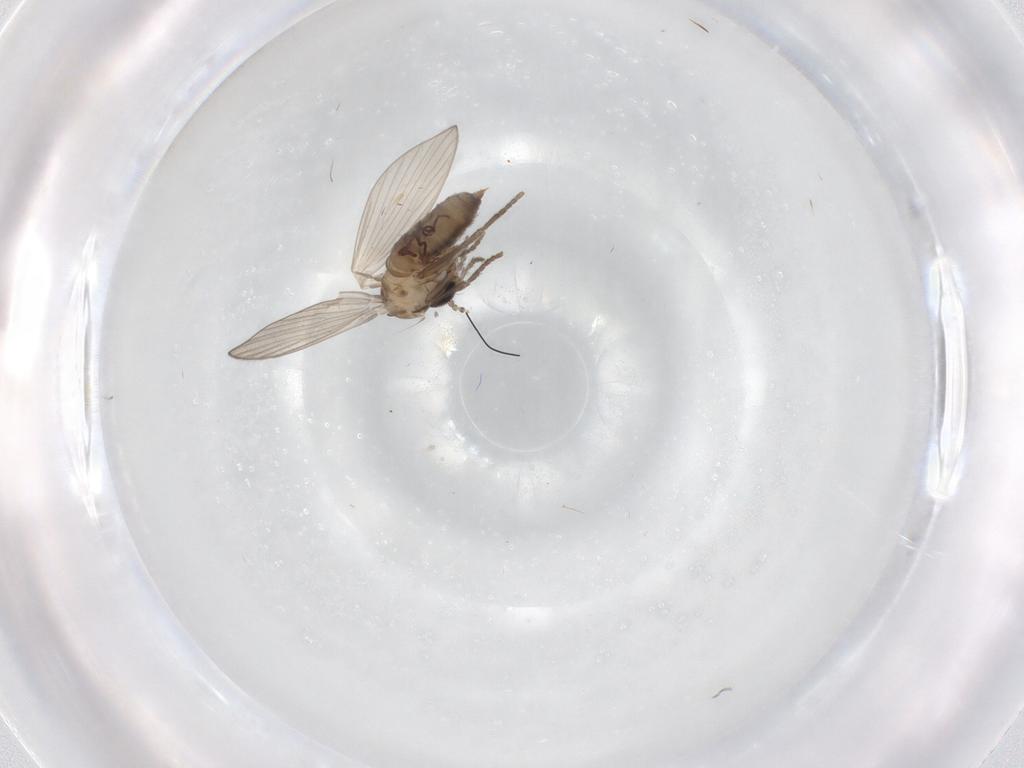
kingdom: Animalia
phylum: Arthropoda
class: Insecta
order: Diptera
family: Psychodidae
